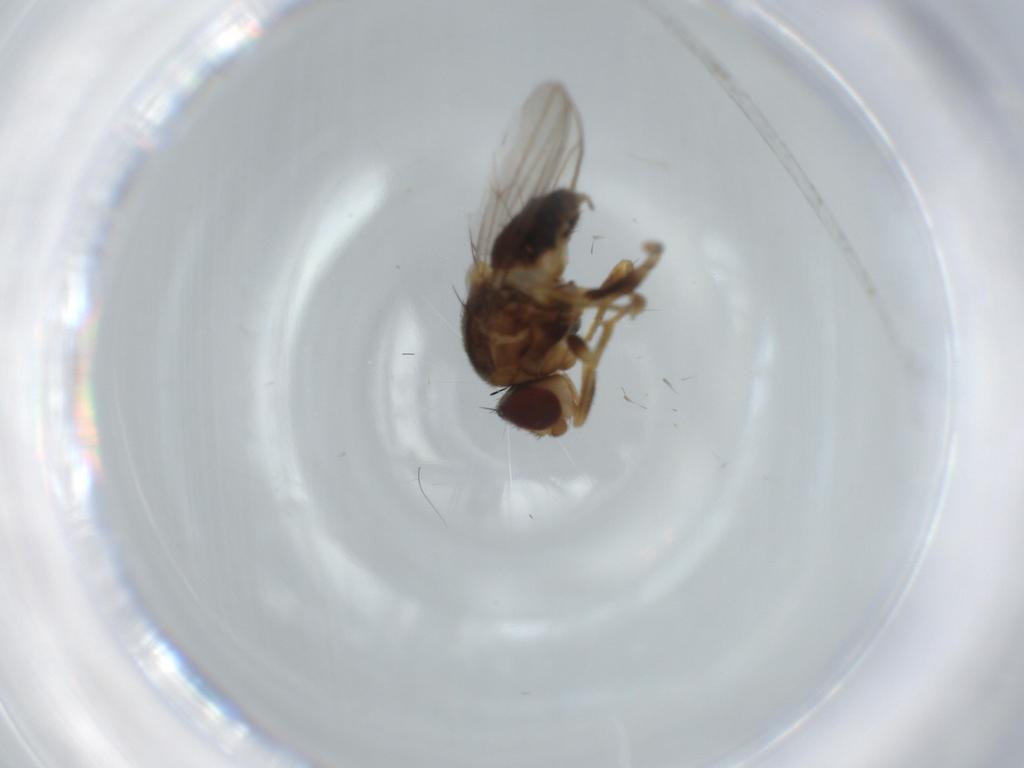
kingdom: Animalia
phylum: Arthropoda
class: Insecta
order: Diptera
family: Chloropidae
